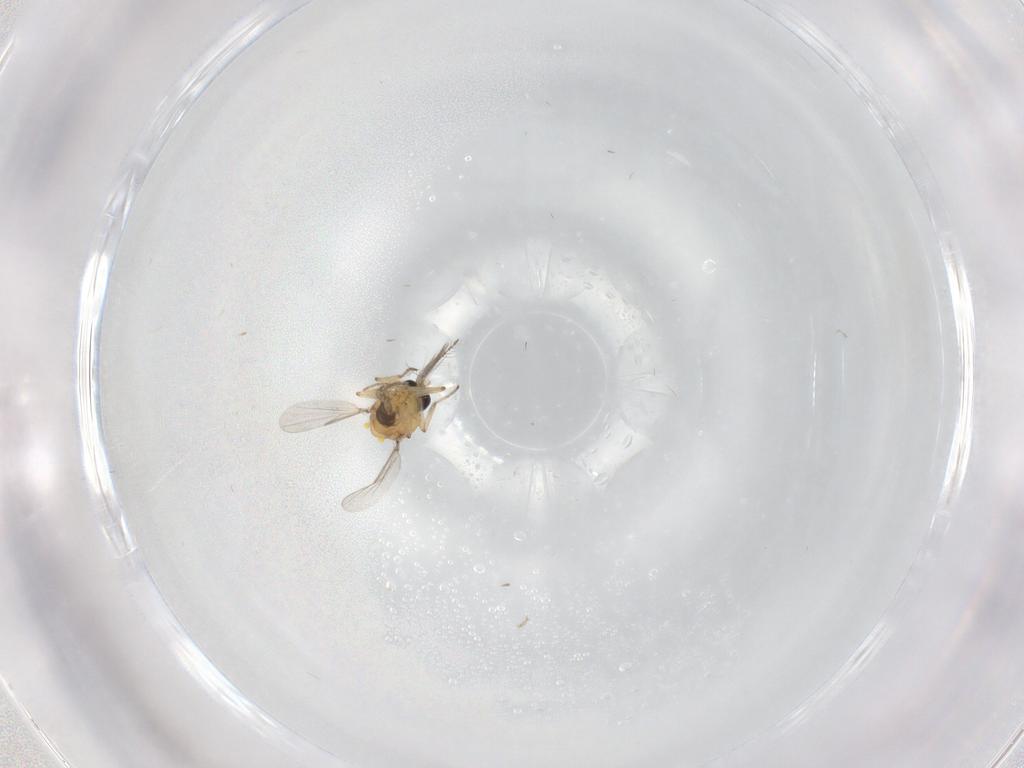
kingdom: Animalia
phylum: Arthropoda
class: Insecta
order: Diptera
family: Ceratopogonidae
